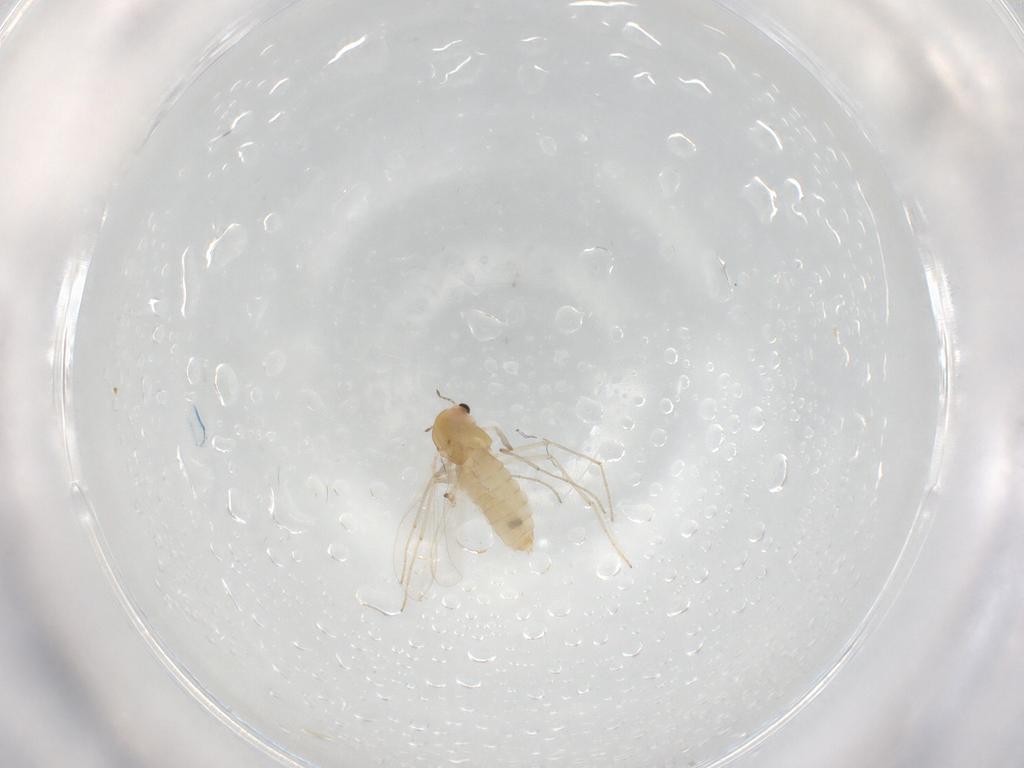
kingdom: Animalia
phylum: Arthropoda
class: Insecta
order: Diptera
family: Chironomidae
